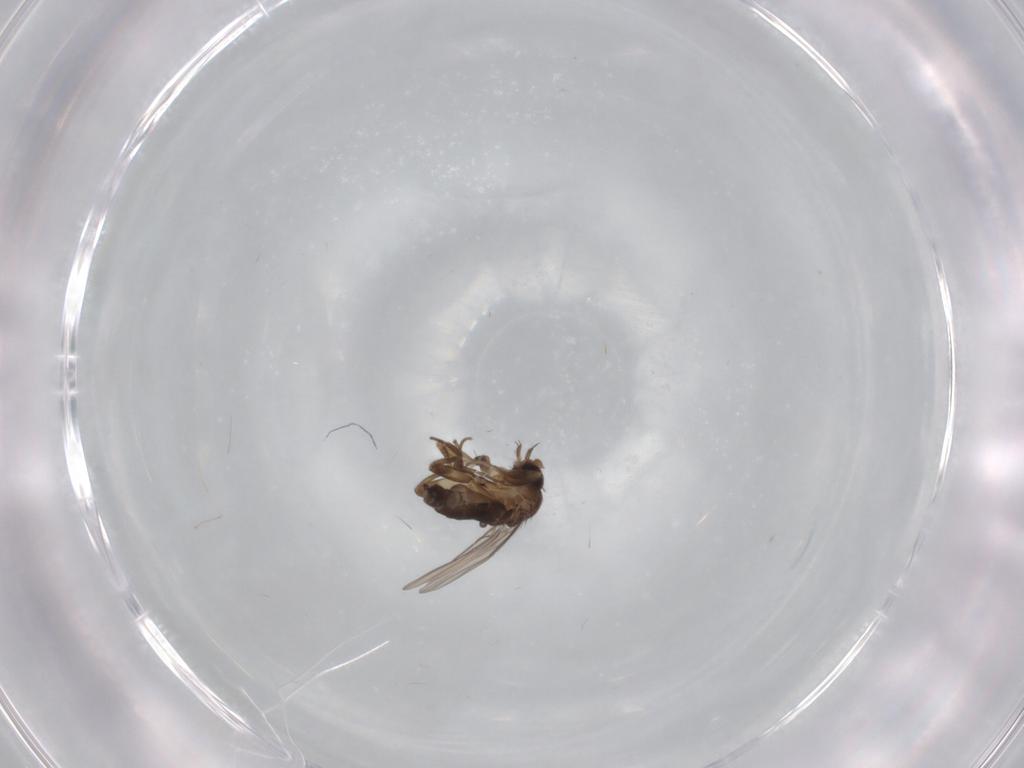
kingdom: Animalia
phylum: Arthropoda
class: Insecta
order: Diptera
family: Phoridae
